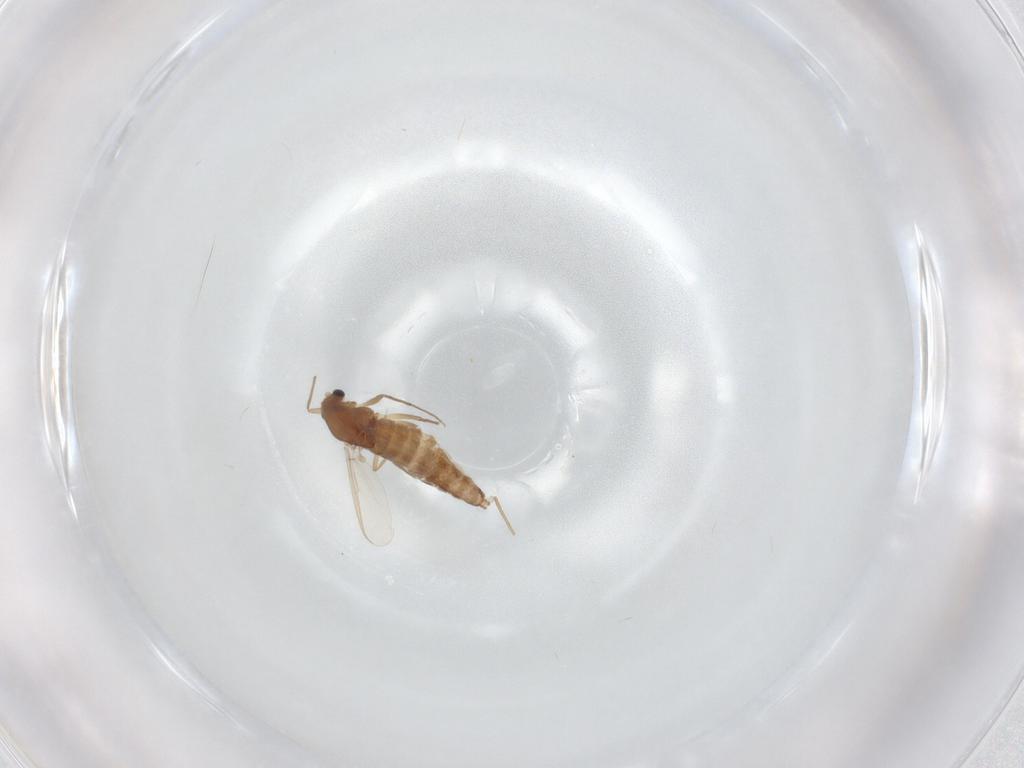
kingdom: Animalia
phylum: Arthropoda
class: Insecta
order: Diptera
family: Chironomidae
